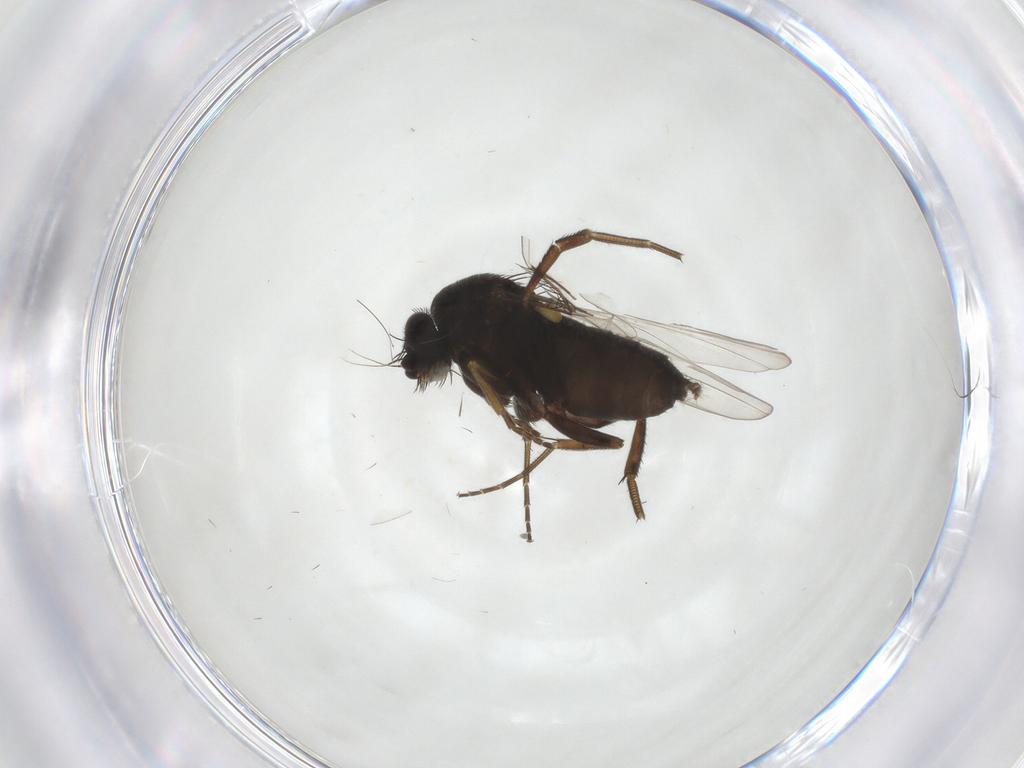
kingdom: Animalia
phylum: Arthropoda
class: Insecta
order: Diptera
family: Phoridae
